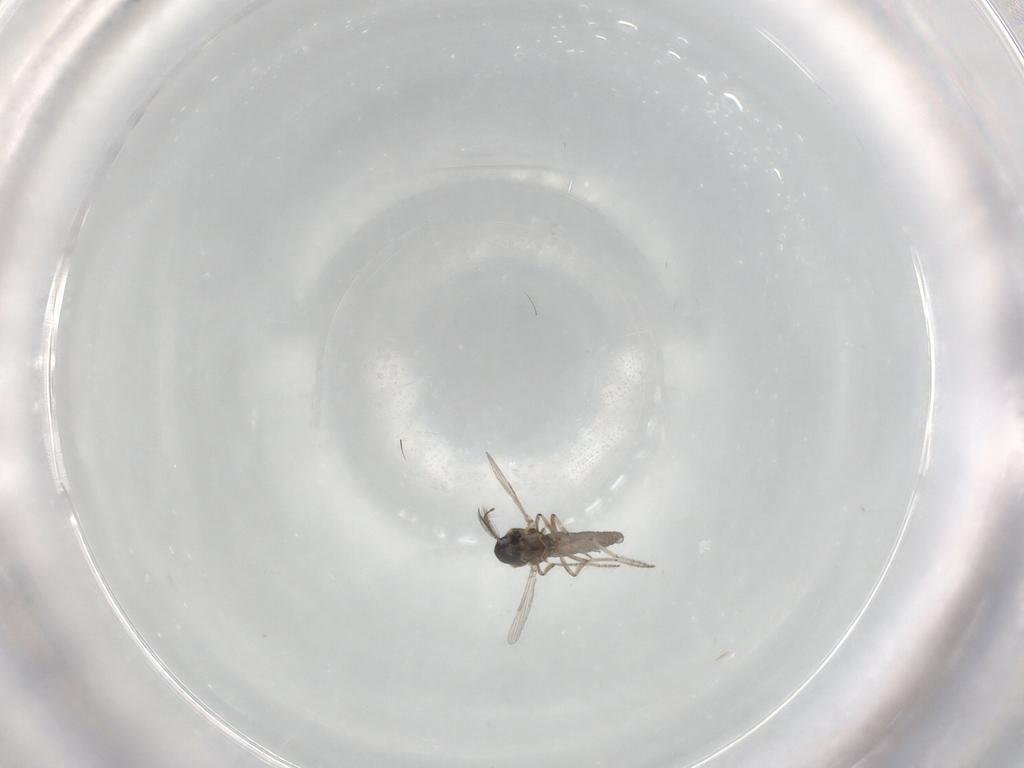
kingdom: Animalia
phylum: Arthropoda
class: Insecta
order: Diptera
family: Ceratopogonidae
